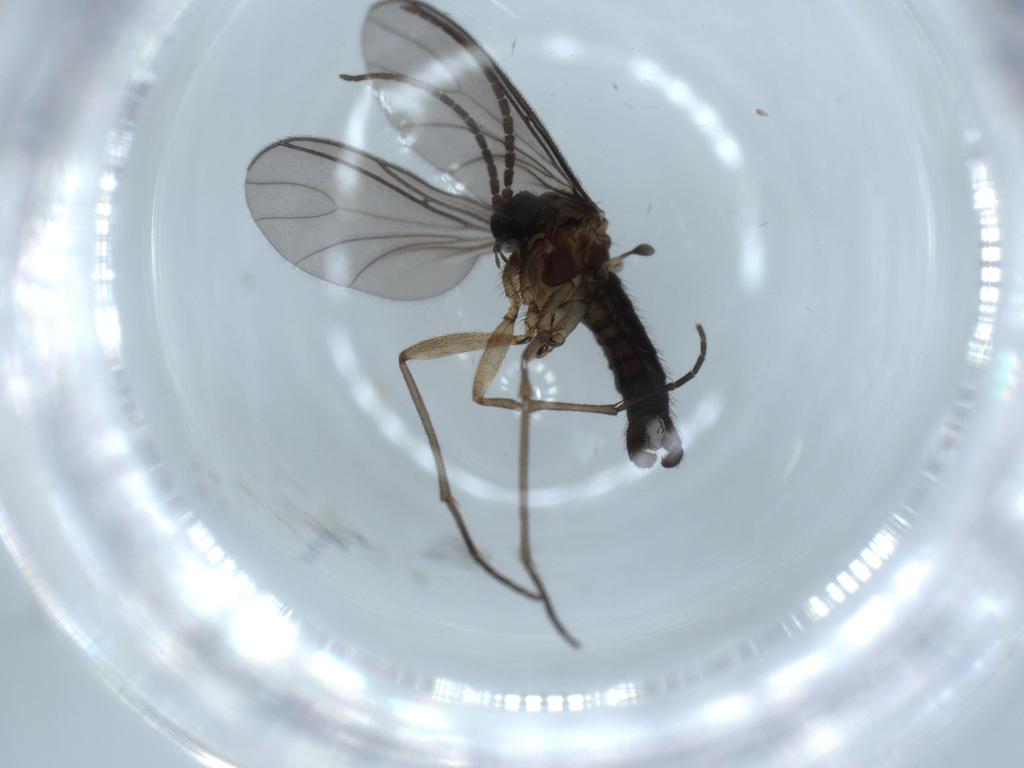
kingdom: Animalia
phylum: Arthropoda
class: Insecta
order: Diptera
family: Sciaridae
